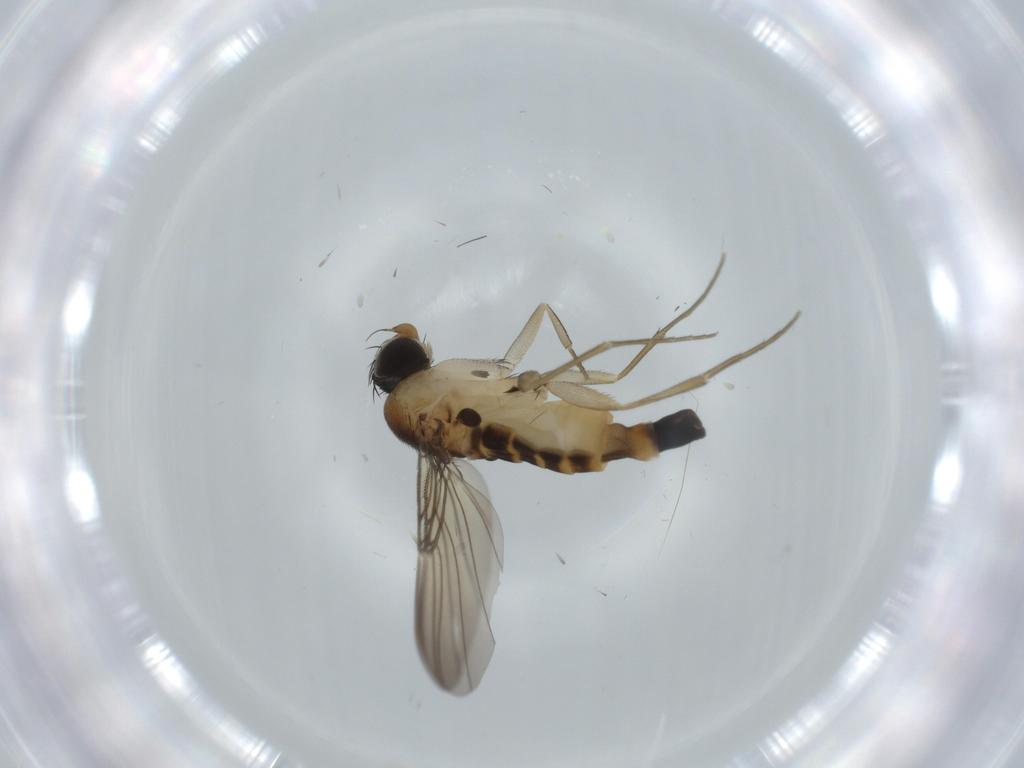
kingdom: Animalia
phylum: Arthropoda
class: Insecta
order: Diptera
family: Phoridae
